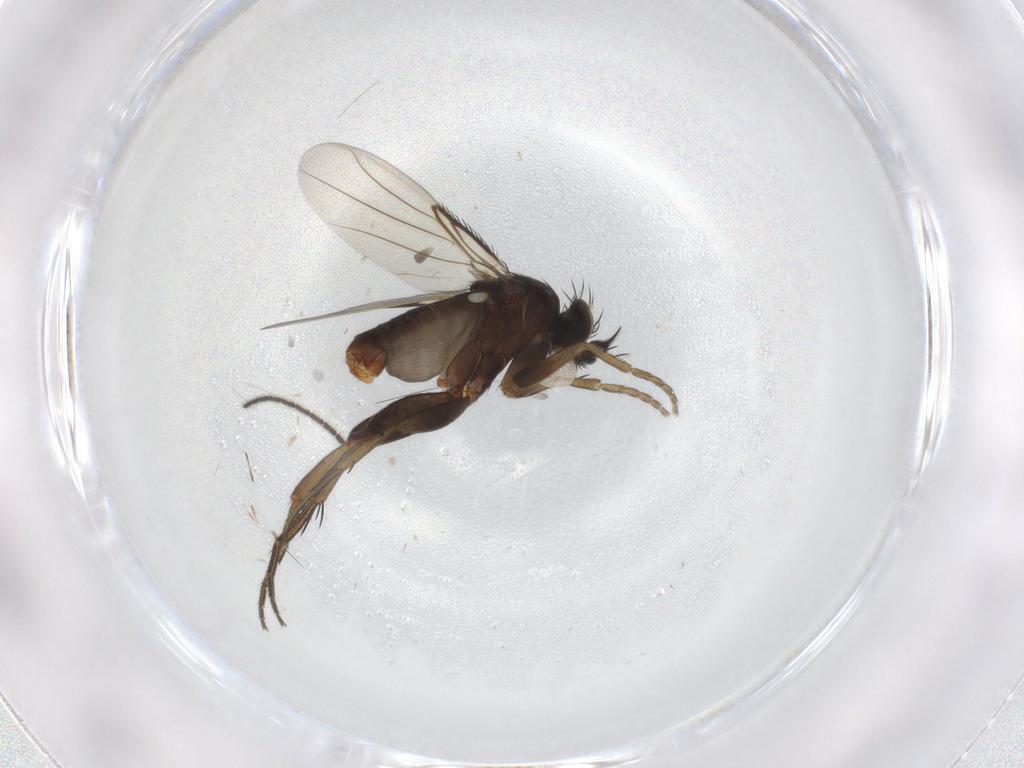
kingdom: Animalia
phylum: Arthropoda
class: Insecta
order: Diptera
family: Phoridae
